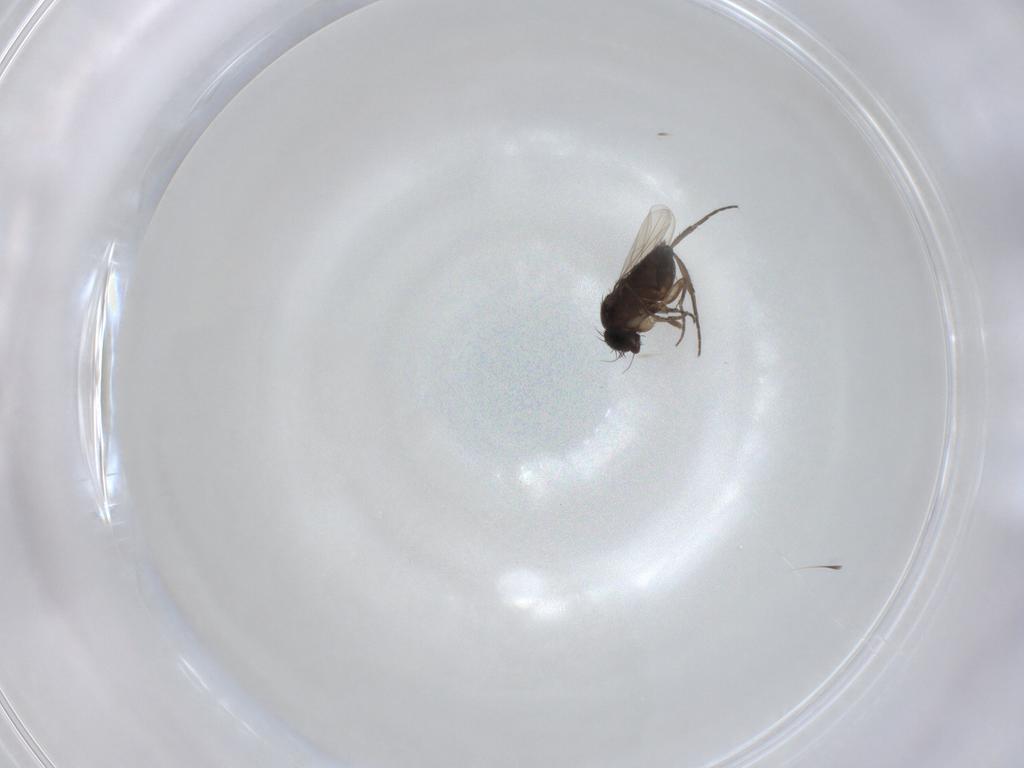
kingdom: Animalia
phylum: Arthropoda
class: Insecta
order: Diptera
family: Phoridae
